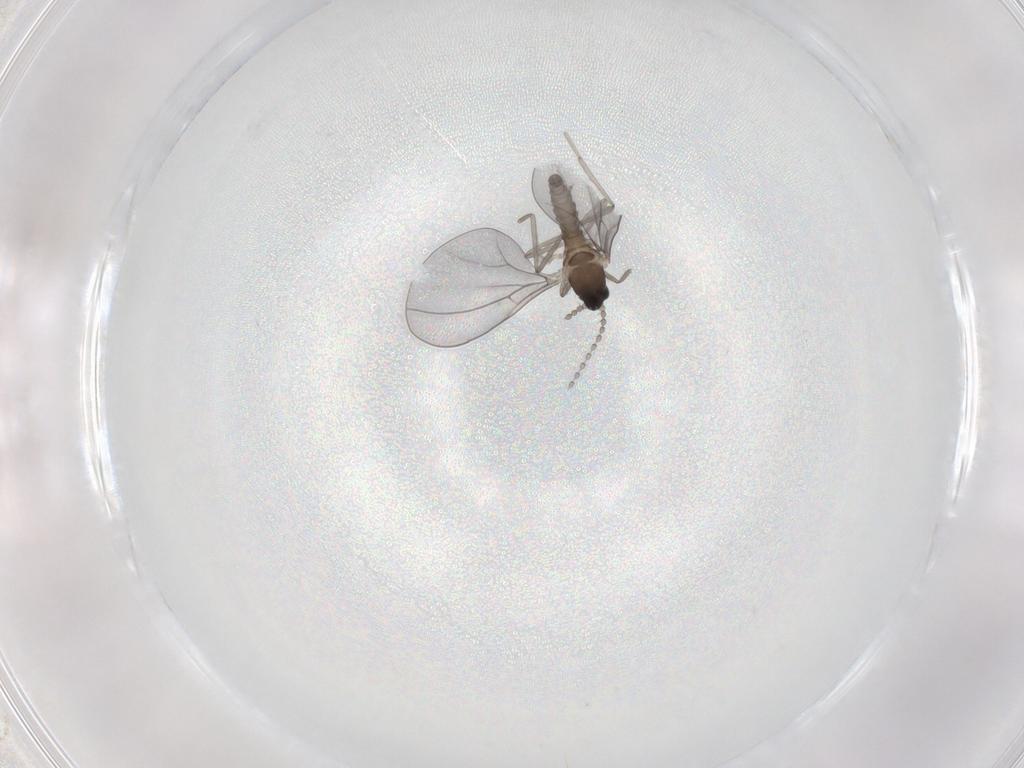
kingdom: Animalia
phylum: Arthropoda
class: Insecta
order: Diptera
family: Cecidomyiidae
